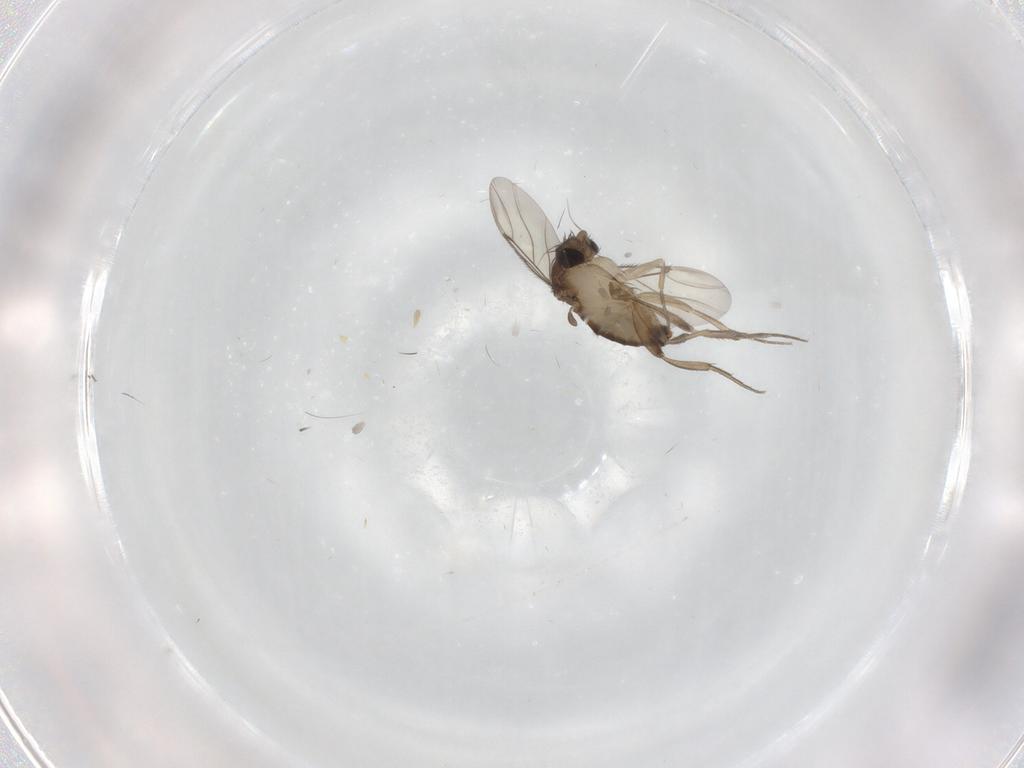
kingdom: Animalia
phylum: Arthropoda
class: Insecta
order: Diptera
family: Phoridae
